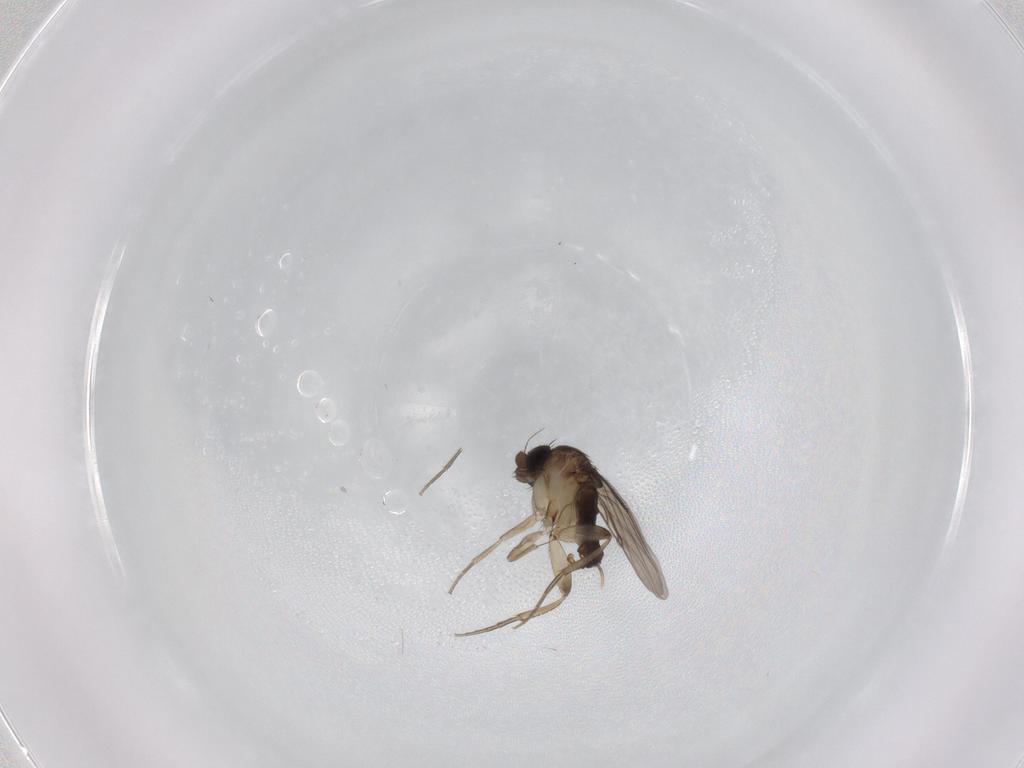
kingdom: Animalia
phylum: Arthropoda
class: Insecta
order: Diptera
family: Phoridae
